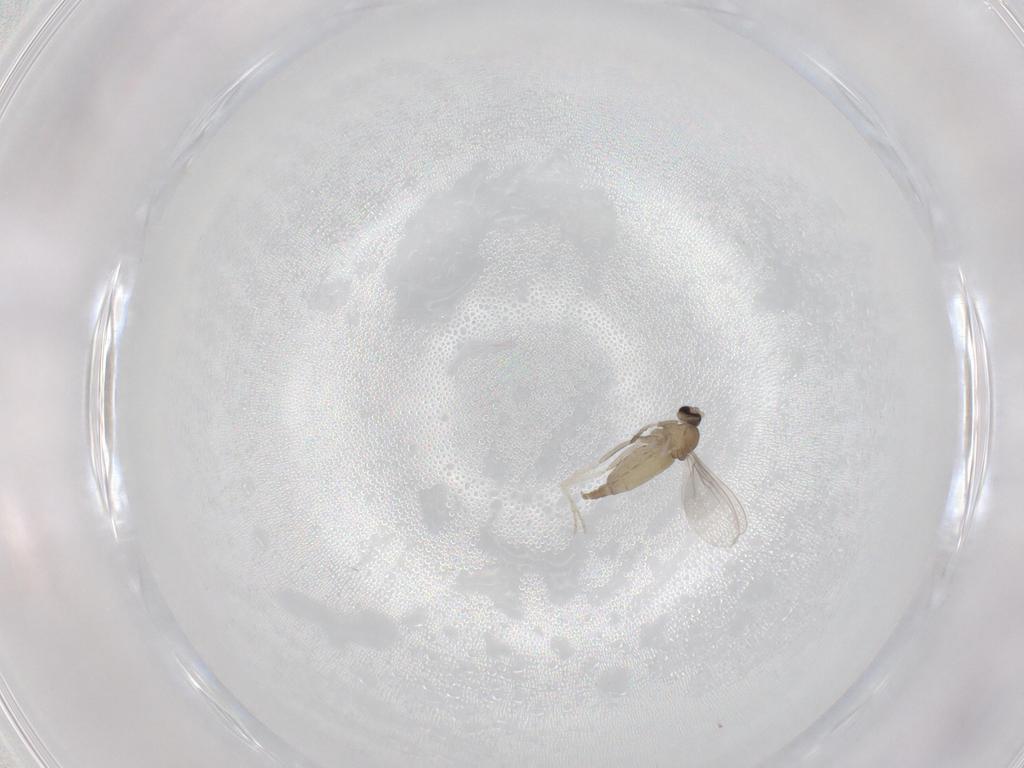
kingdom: Animalia
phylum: Arthropoda
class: Insecta
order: Diptera
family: Cecidomyiidae
